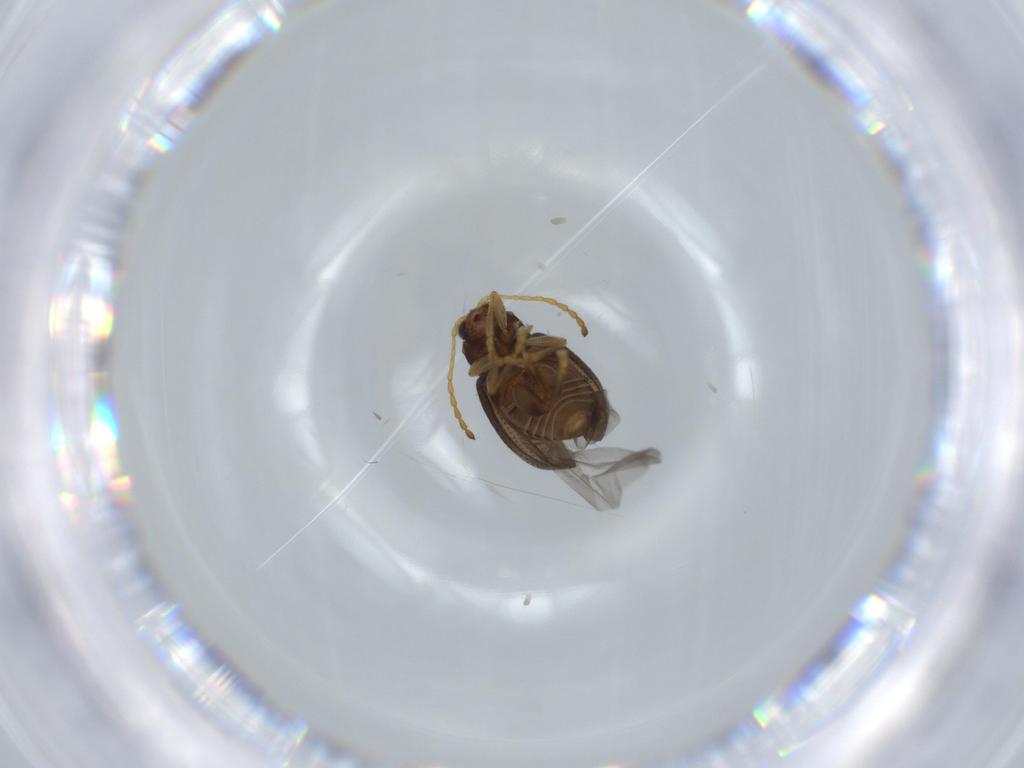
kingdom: Animalia
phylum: Arthropoda
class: Insecta
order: Coleoptera
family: Chrysomelidae
